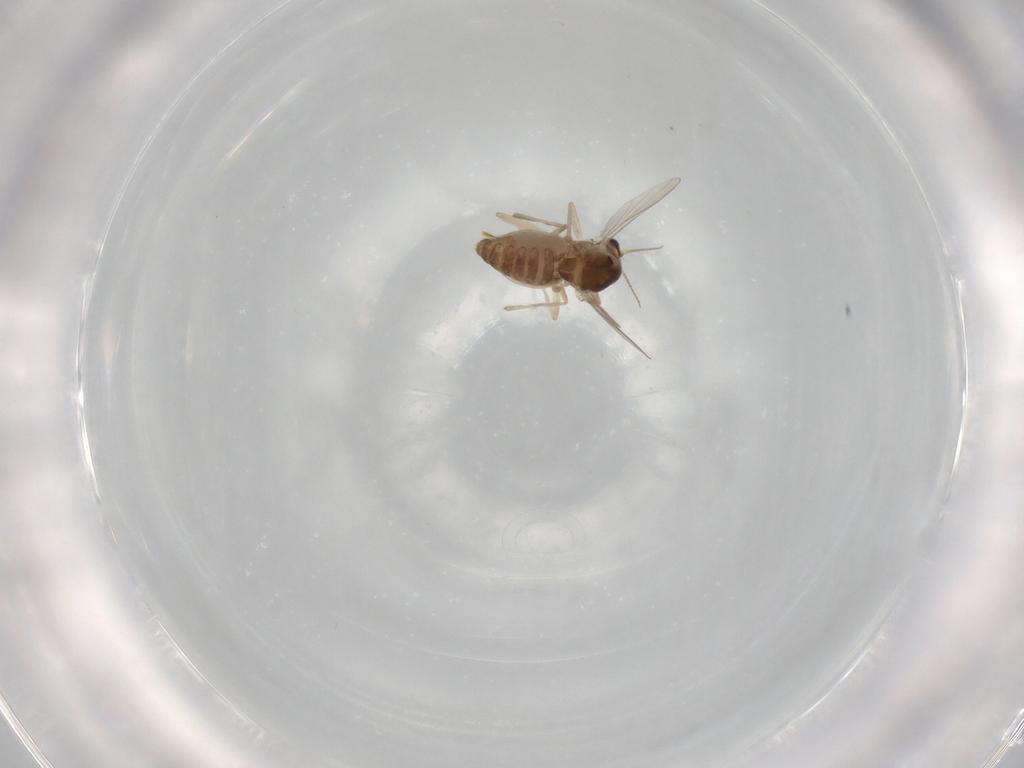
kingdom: Animalia
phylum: Arthropoda
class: Insecta
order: Diptera
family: Chironomidae
